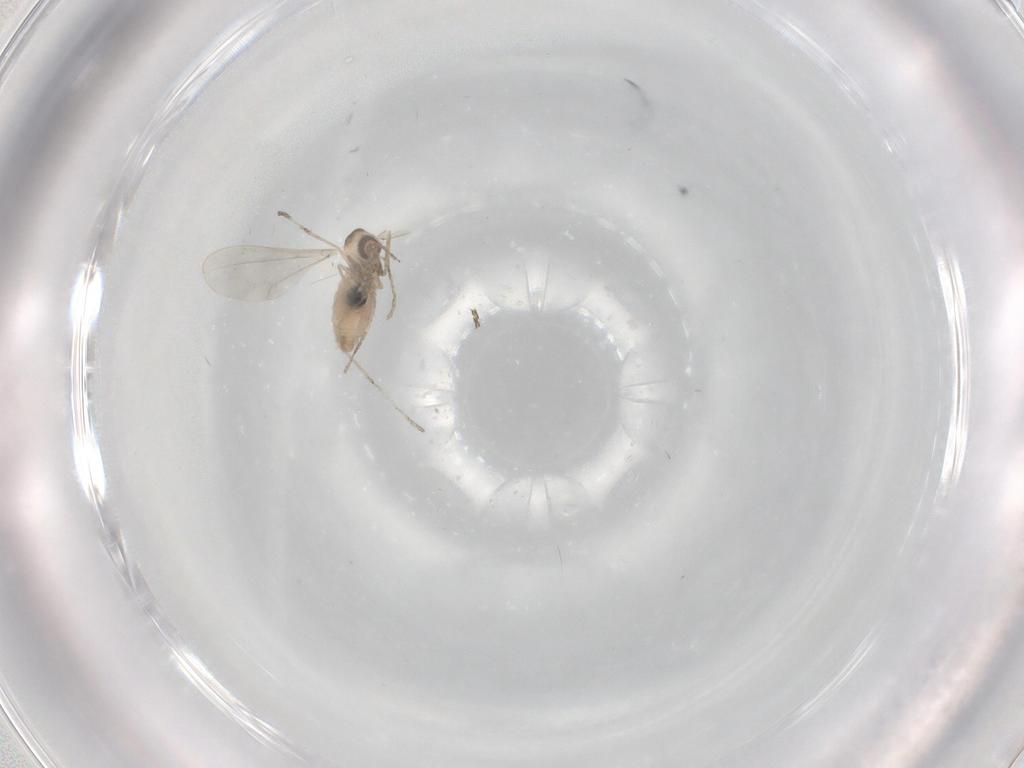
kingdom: Animalia
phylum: Arthropoda
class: Insecta
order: Diptera
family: Cecidomyiidae
